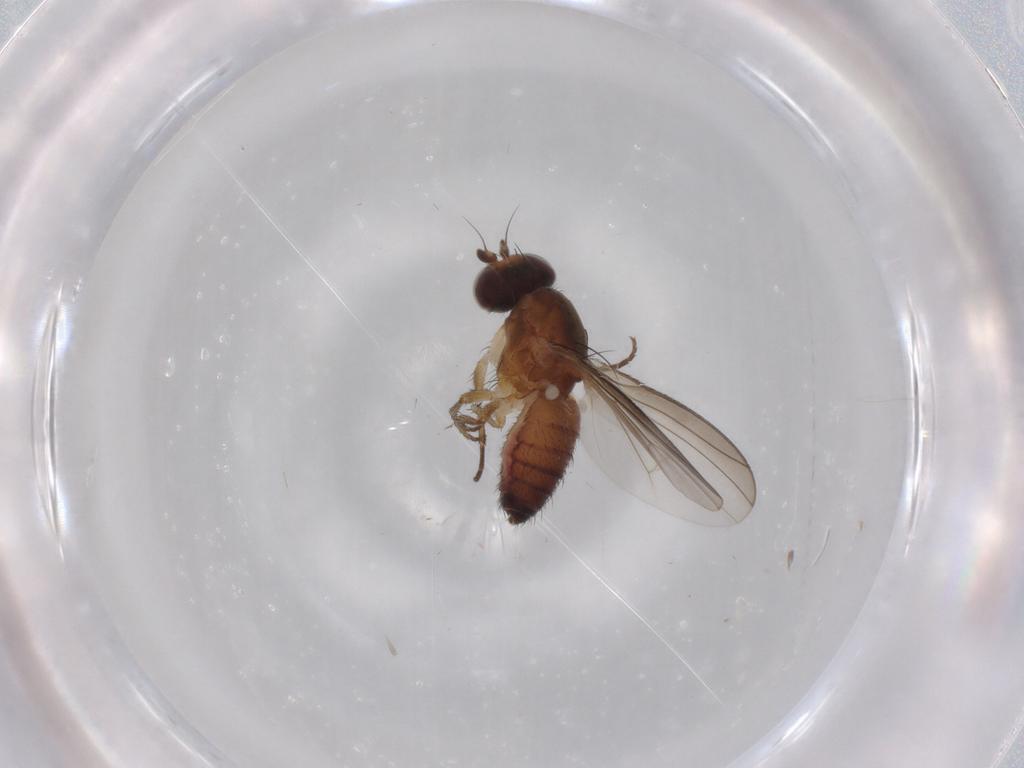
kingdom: Animalia
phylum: Arthropoda
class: Insecta
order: Diptera
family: Heleomyzidae
